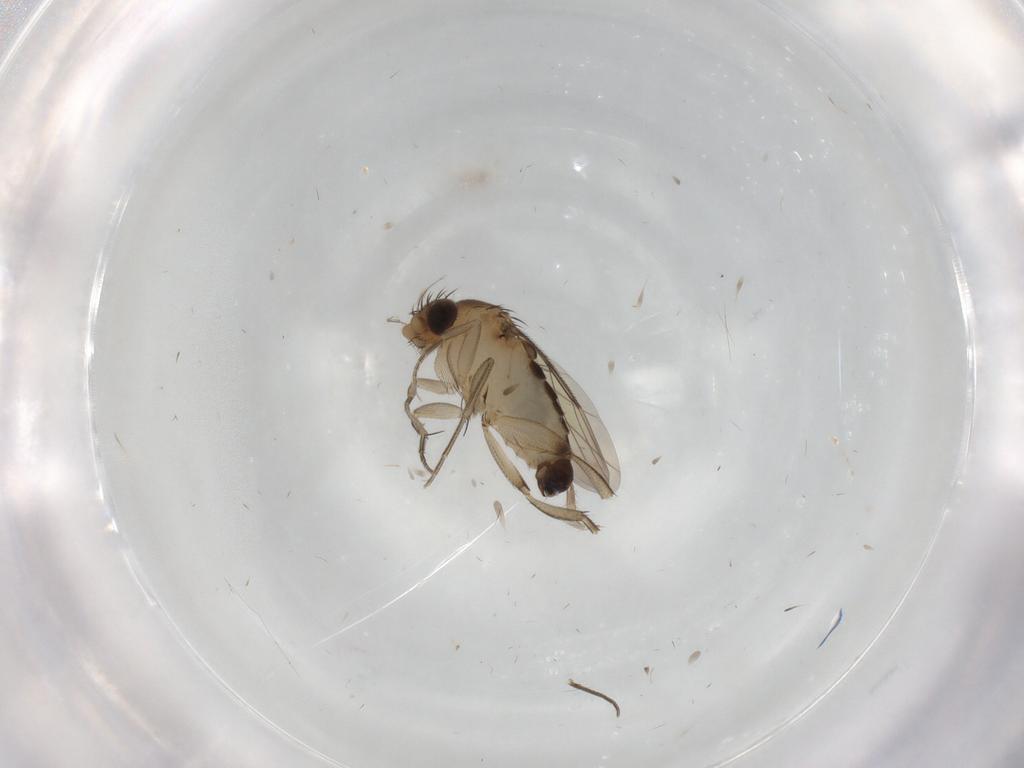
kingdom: Animalia
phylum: Arthropoda
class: Insecta
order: Diptera
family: Phoridae
